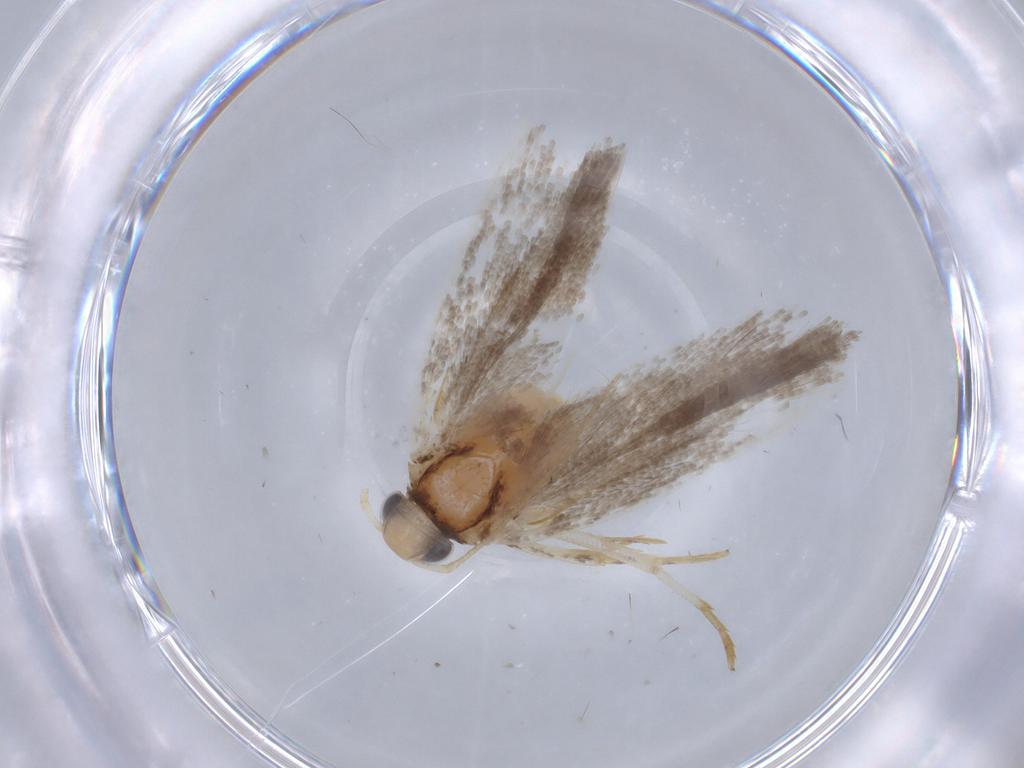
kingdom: Animalia
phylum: Arthropoda
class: Insecta
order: Lepidoptera
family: Gelechiidae
